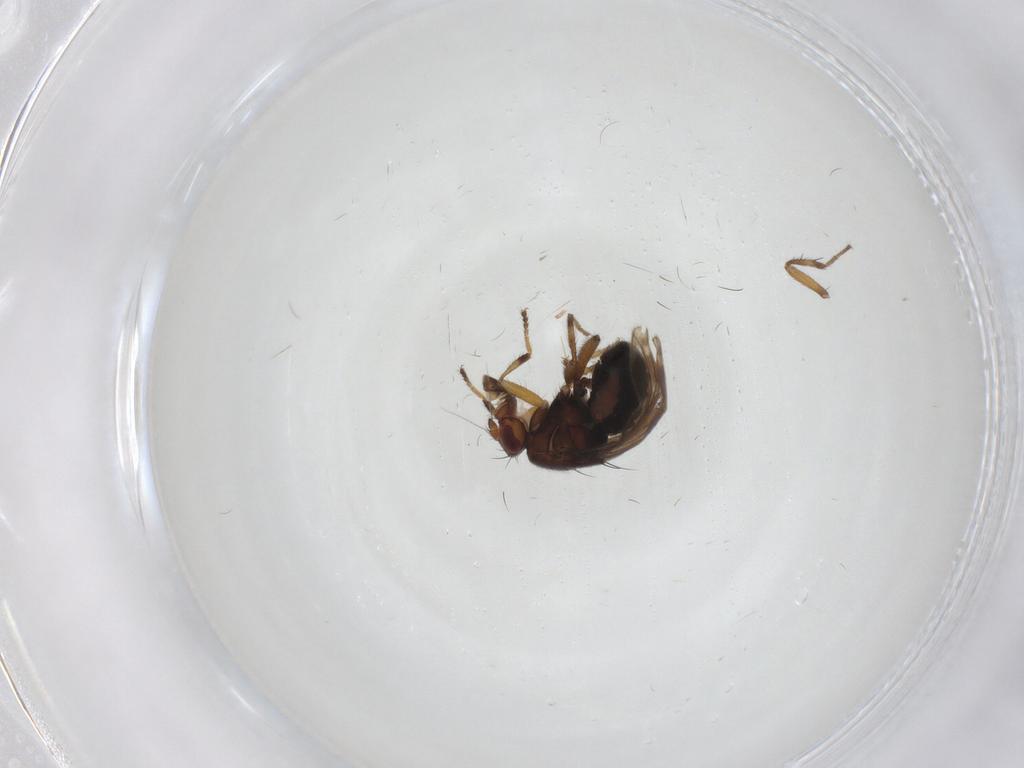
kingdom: Animalia
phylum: Arthropoda
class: Insecta
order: Diptera
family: Sphaeroceridae
